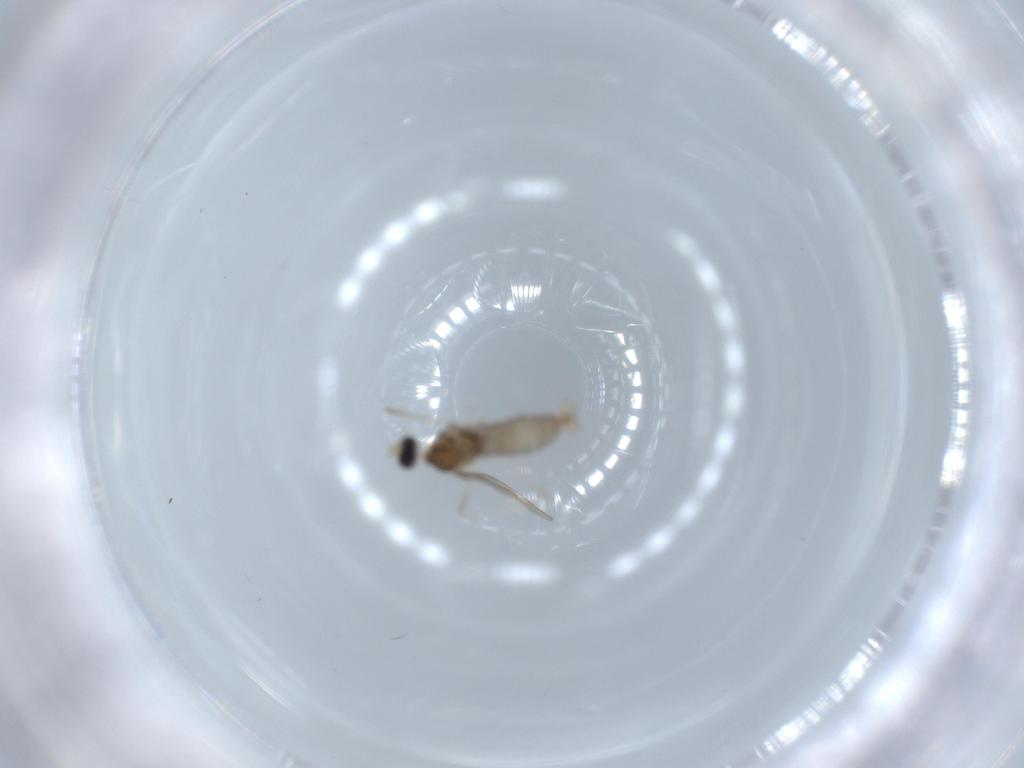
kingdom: Animalia
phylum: Arthropoda
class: Insecta
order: Diptera
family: Cecidomyiidae
